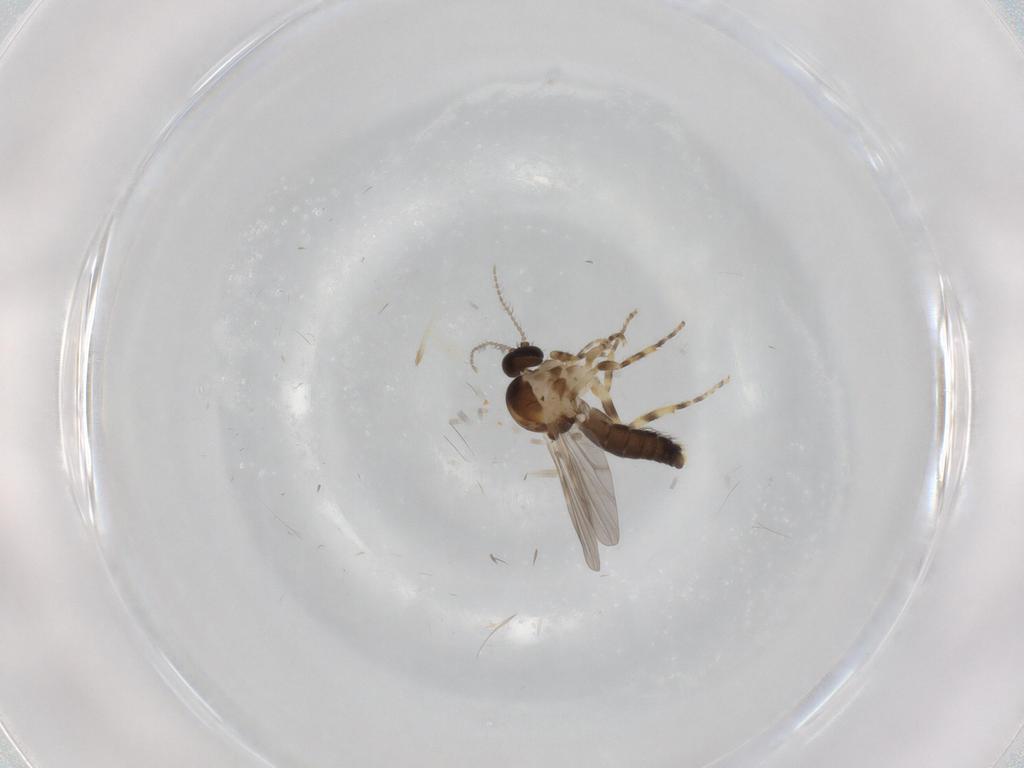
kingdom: Animalia
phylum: Arthropoda
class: Insecta
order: Diptera
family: Ceratopogonidae
